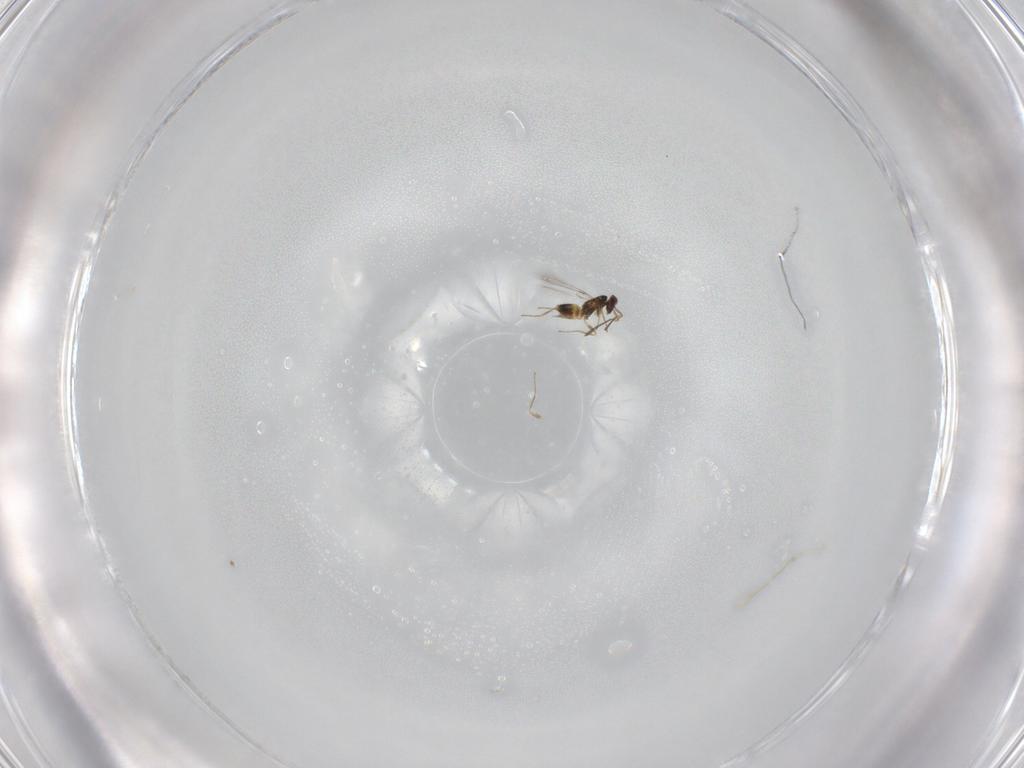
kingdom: Animalia
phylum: Arthropoda
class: Insecta
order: Hymenoptera
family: Mymaridae
